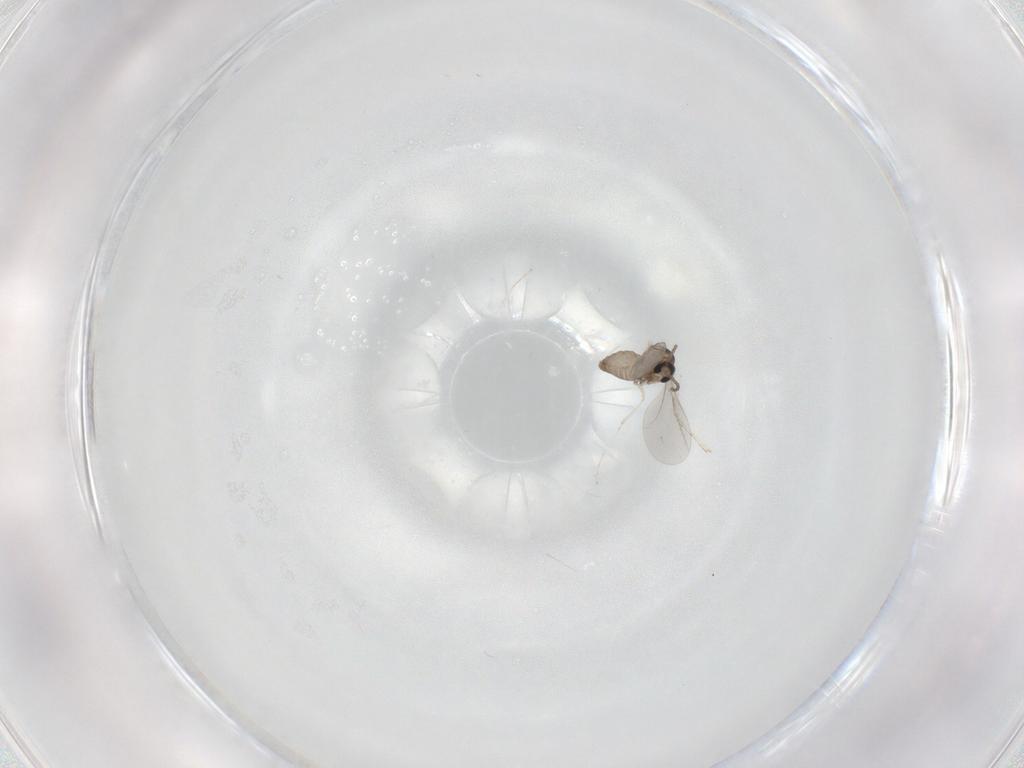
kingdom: Animalia
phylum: Arthropoda
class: Insecta
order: Diptera
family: Cecidomyiidae
